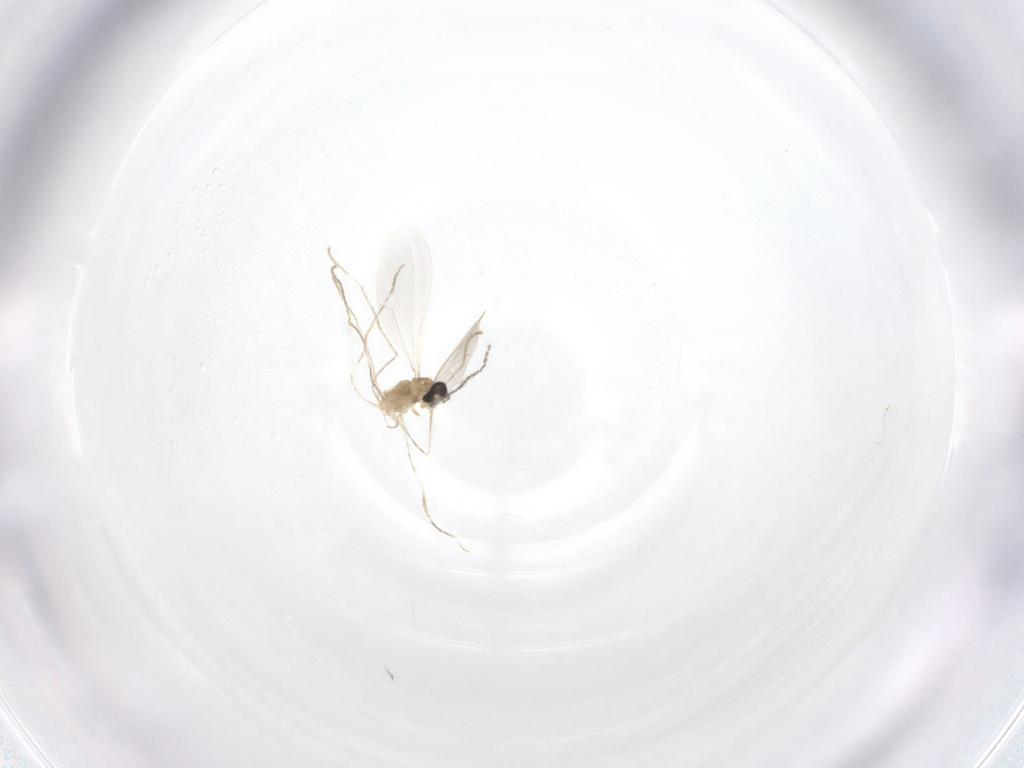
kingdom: Animalia
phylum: Arthropoda
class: Insecta
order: Diptera
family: Cecidomyiidae
